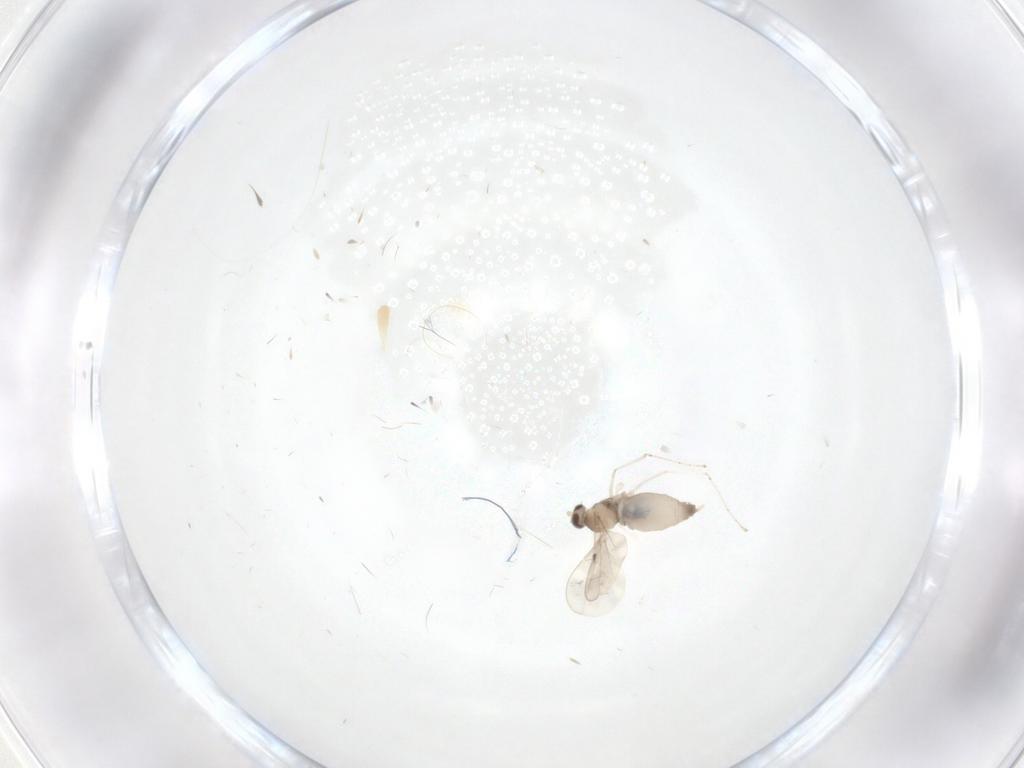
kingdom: Animalia
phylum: Arthropoda
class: Insecta
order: Diptera
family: Cecidomyiidae
